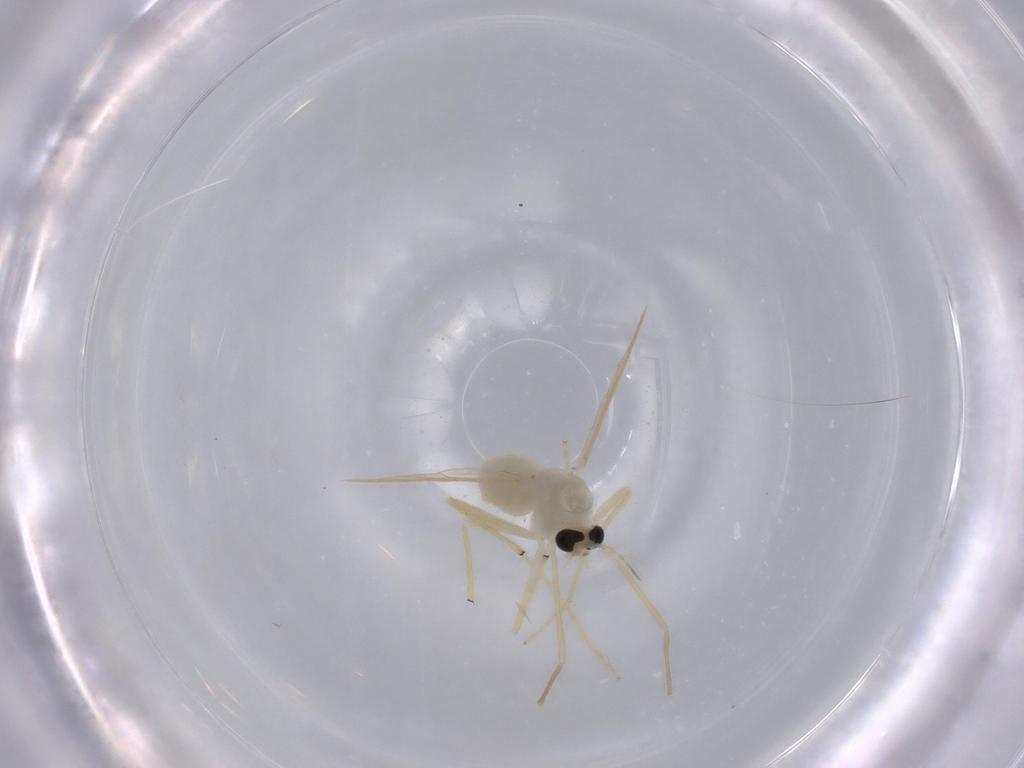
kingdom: Animalia
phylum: Arthropoda
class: Insecta
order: Diptera
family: Chironomidae
